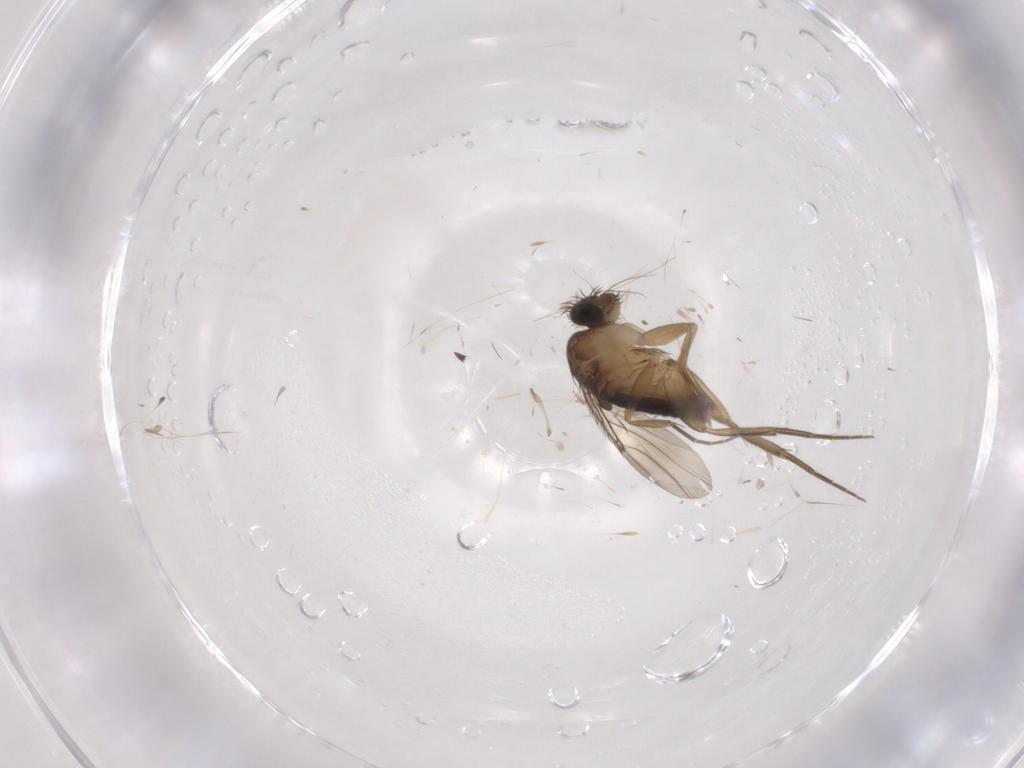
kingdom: Animalia
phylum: Arthropoda
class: Insecta
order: Diptera
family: Phoridae
